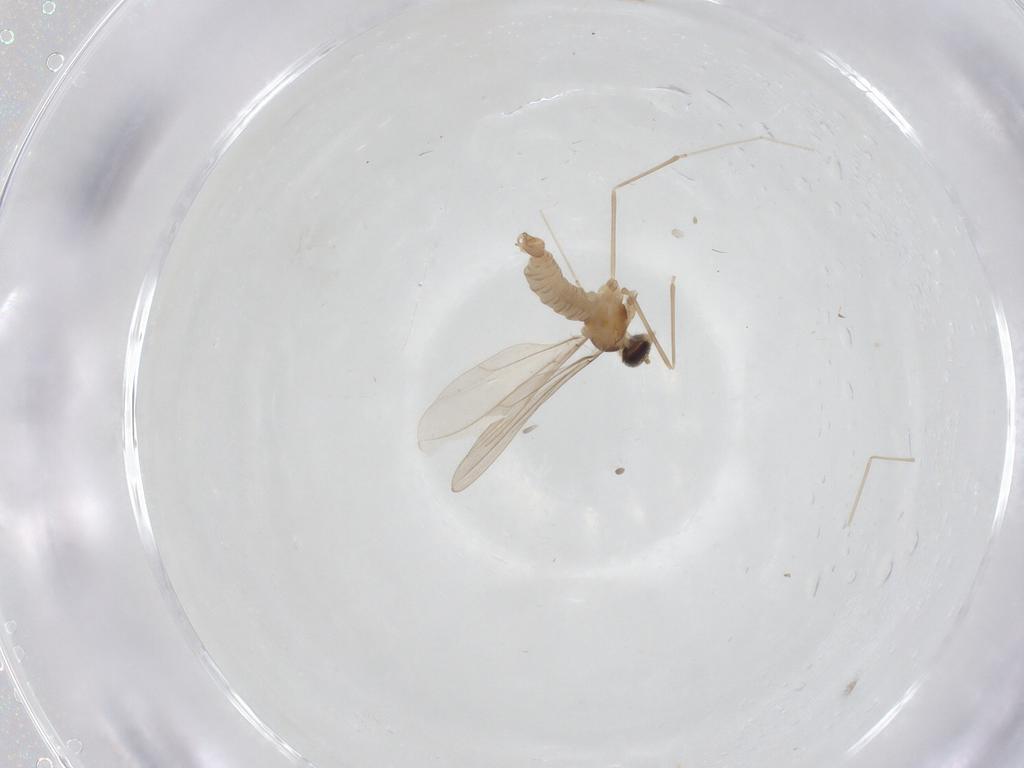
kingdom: Animalia
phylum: Arthropoda
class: Insecta
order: Diptera
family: Cecidomyiidae
